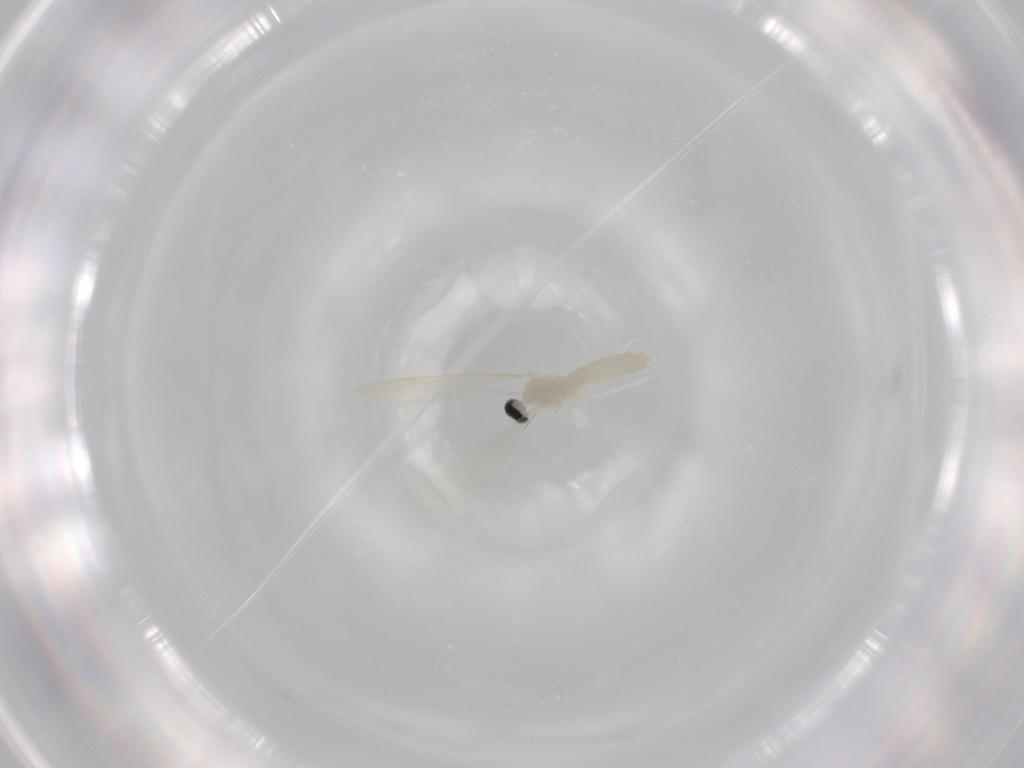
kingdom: Animalia
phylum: Arthropoda
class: Insecta
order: Diptera
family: Cecidomyiidae
